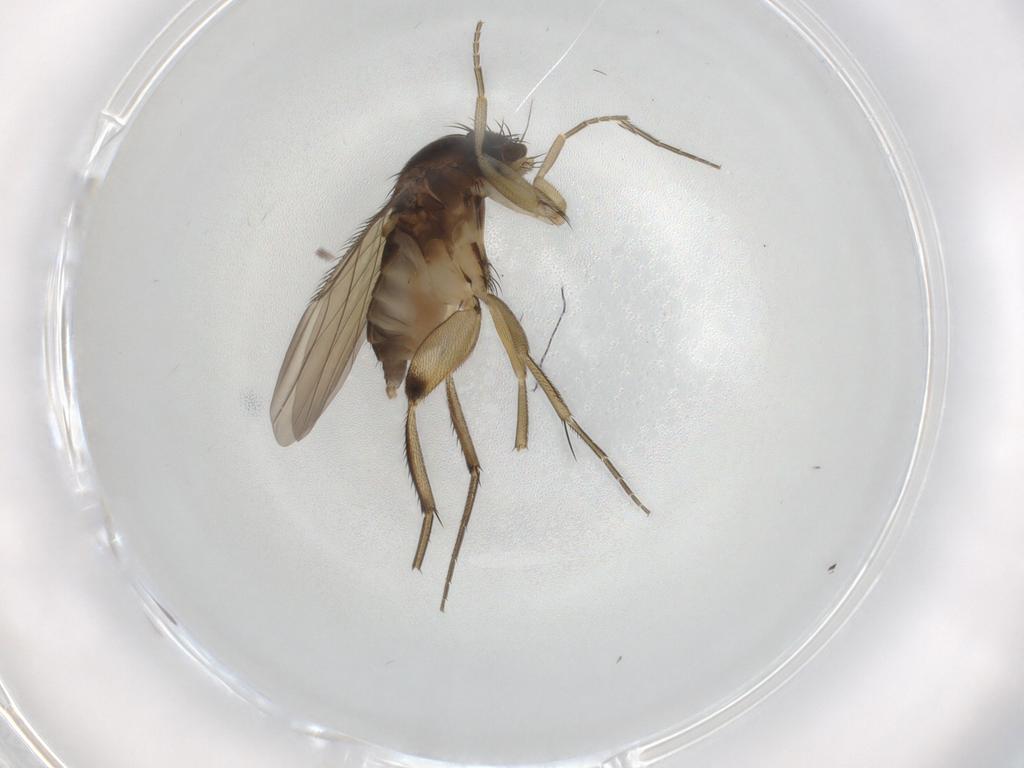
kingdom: Animalia
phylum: Arthropoda
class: Insecta
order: Diptera
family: Phoridae
